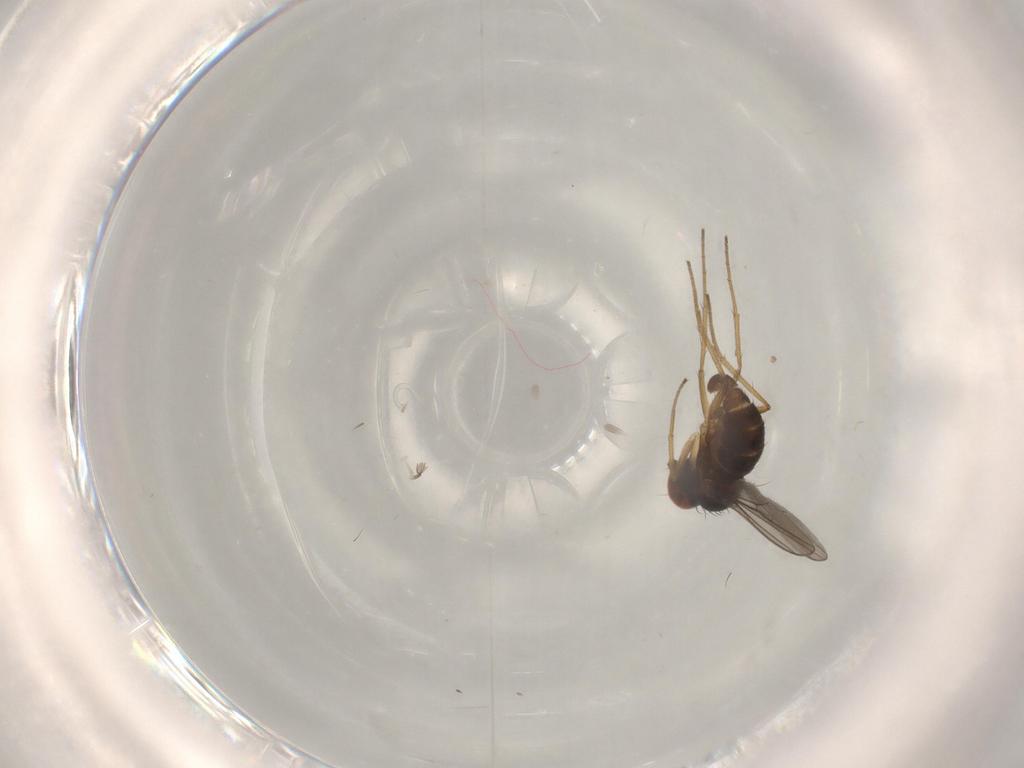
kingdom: Animalia
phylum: Arthropoda
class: Insecta
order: Diptera
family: Dolichopodidae
